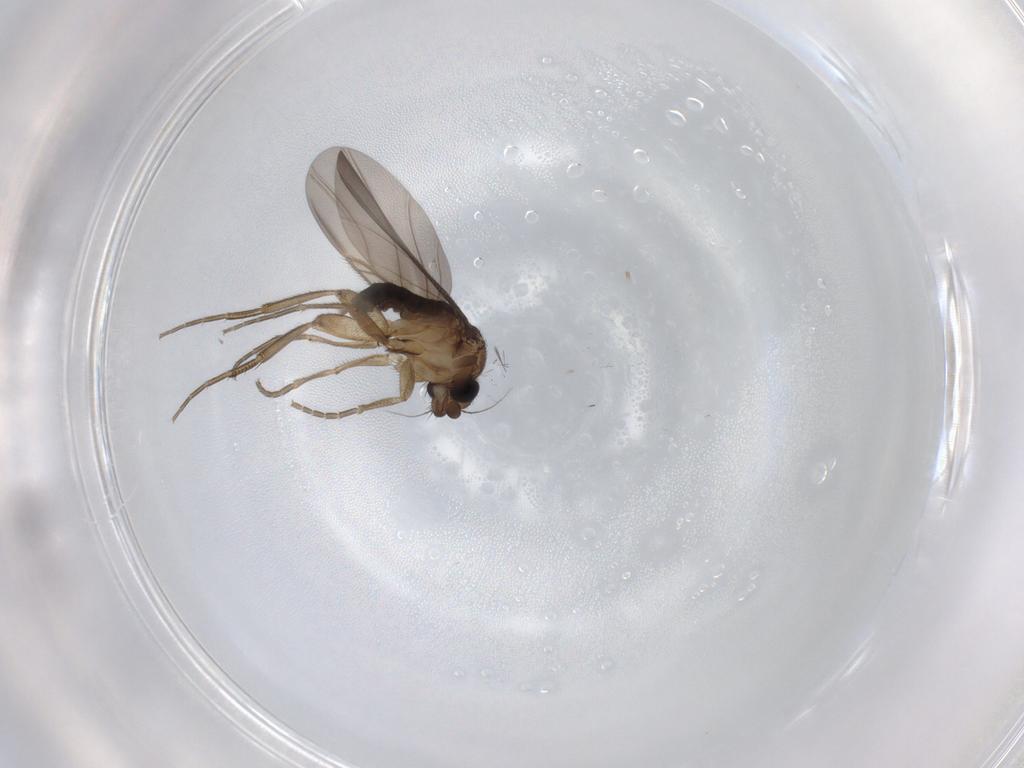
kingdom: Animalia
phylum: Arthropoda
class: Insecta
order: Diptera
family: Phoridae
